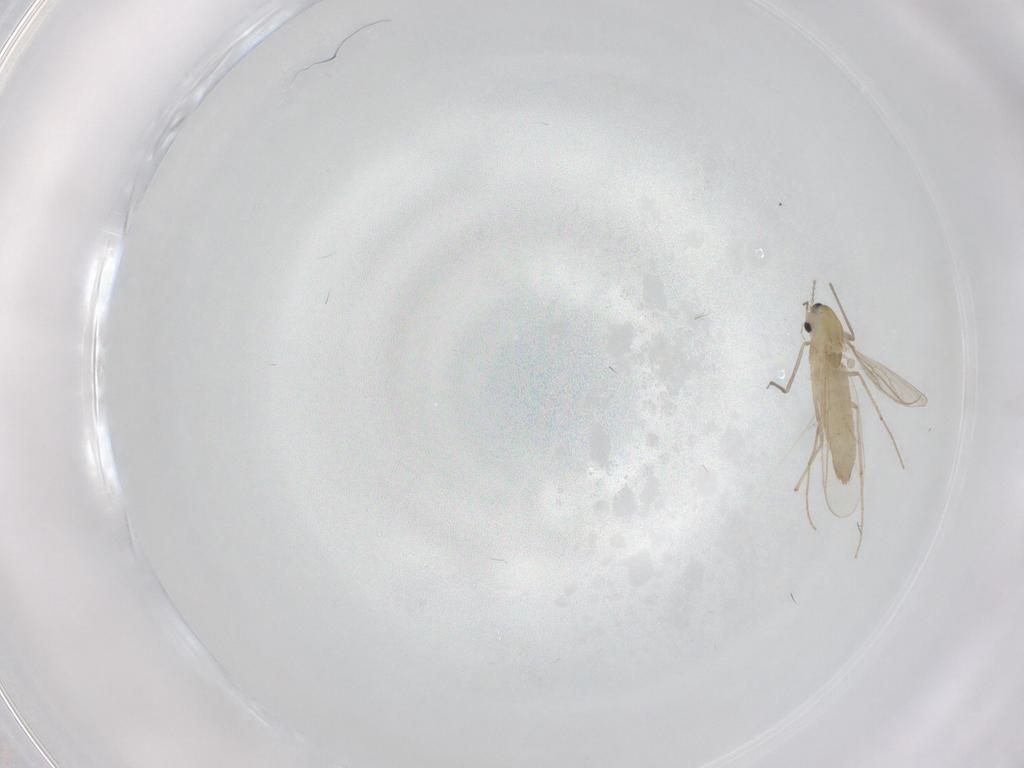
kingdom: Animalia
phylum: Arthropoda
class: Insecta
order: Diptera
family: Chironomidae
